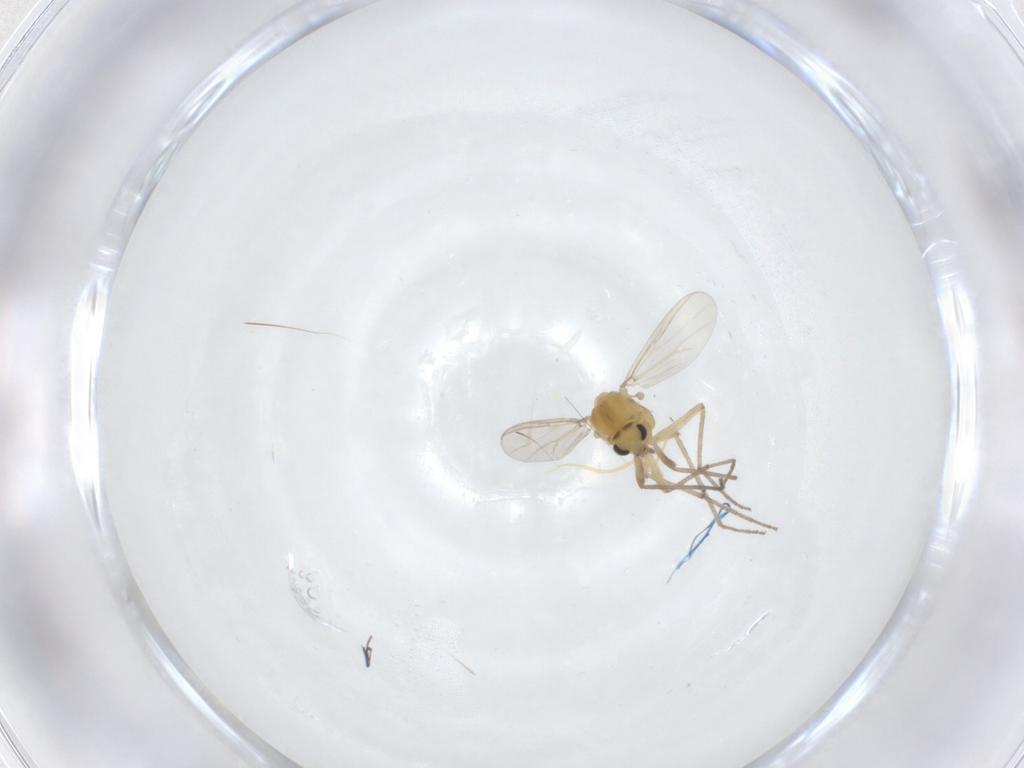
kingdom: Animalia
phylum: Arthropoda
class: Insecta
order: Diptera
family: Chironomidae
